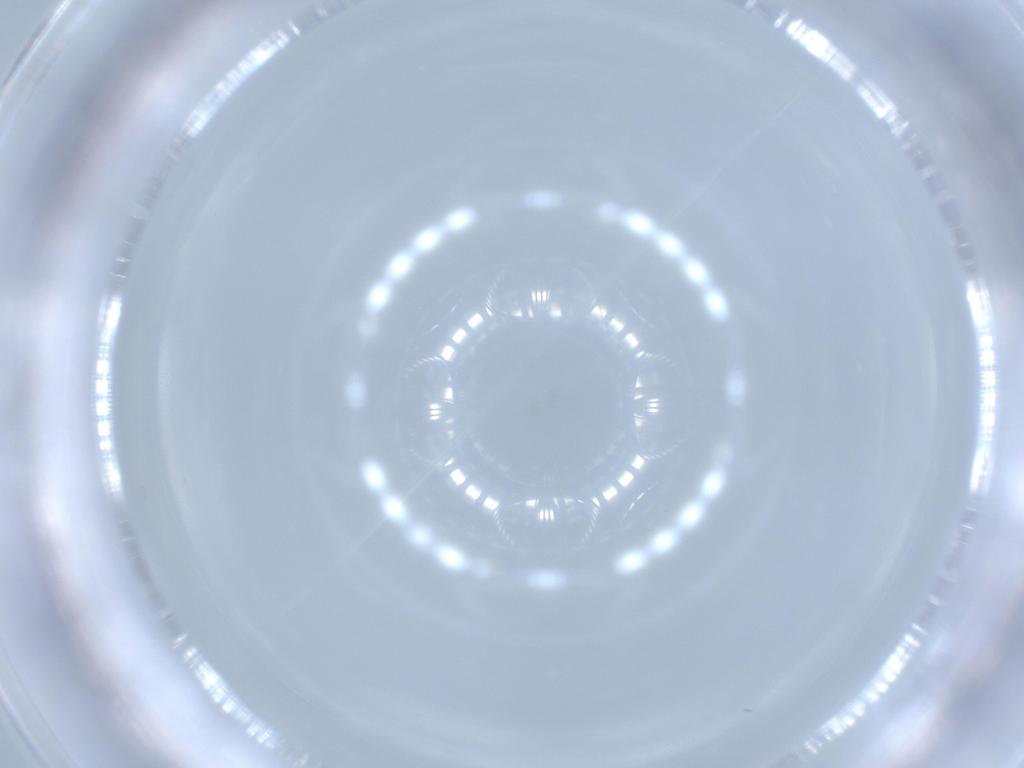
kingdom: Animalia
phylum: Arthropoda
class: Insecta
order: Diptera
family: Clusiidae
